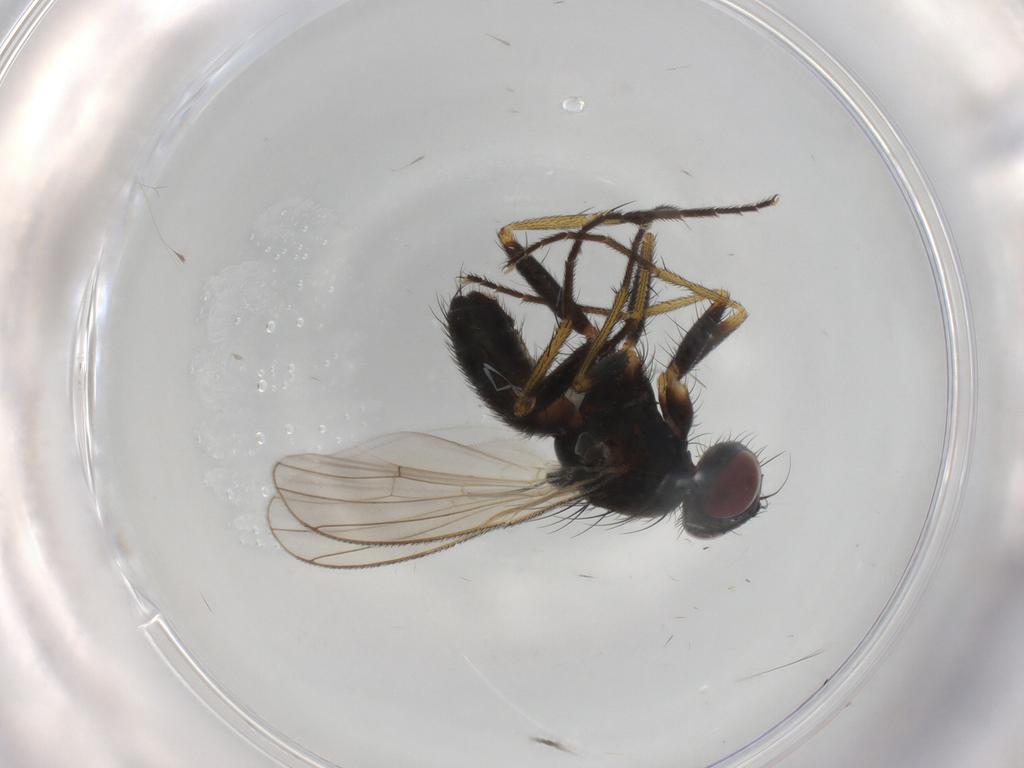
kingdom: Animalia
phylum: Arthropoda
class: Insecta
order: Diptera
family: Muscidae
